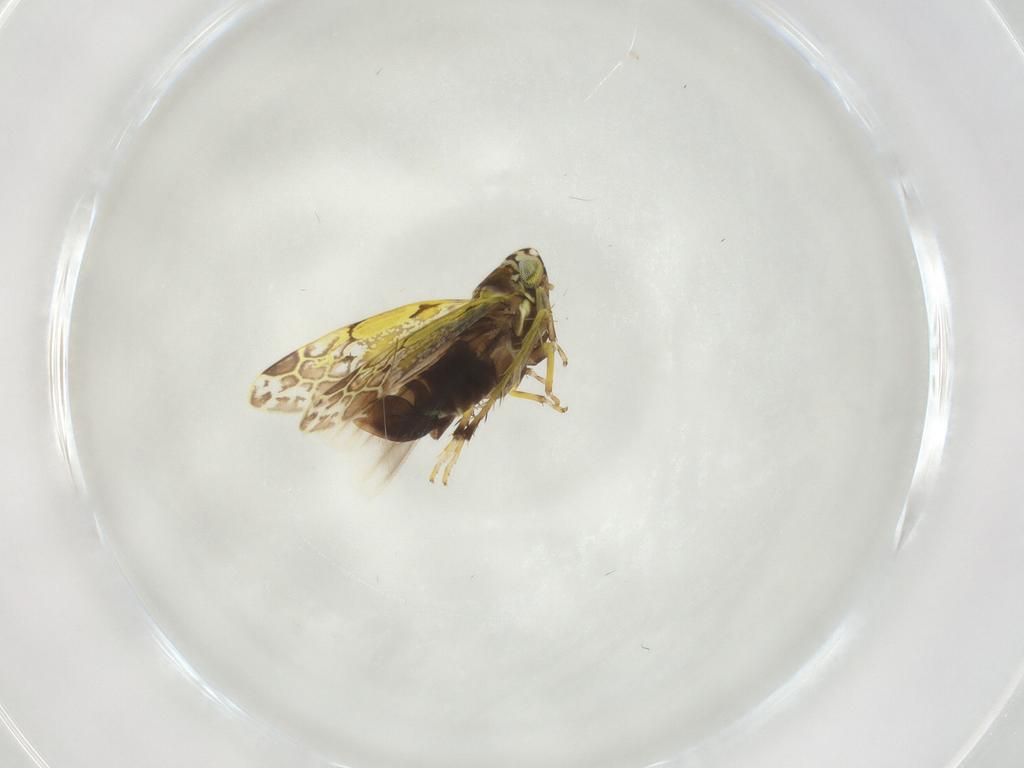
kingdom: Animalia
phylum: Arthropoda
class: Insecta
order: Hemiptera
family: Cicadellidae
